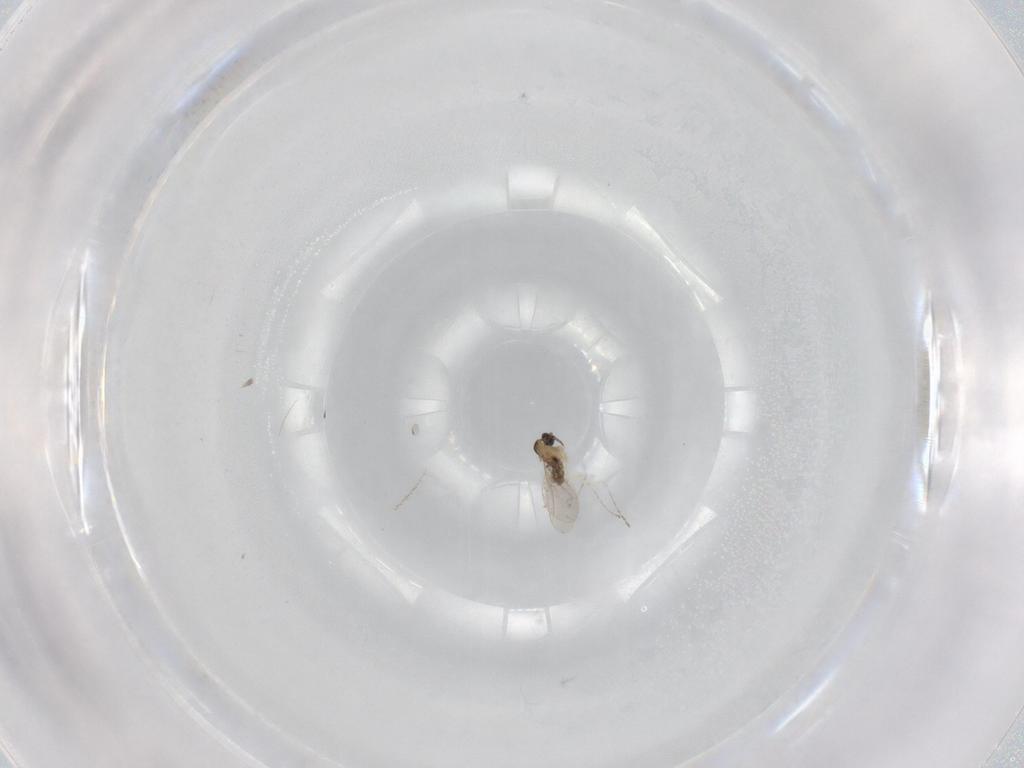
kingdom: Animalia
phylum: Arthropoda
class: Insecta
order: Diptera
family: Cecidomyiidae
